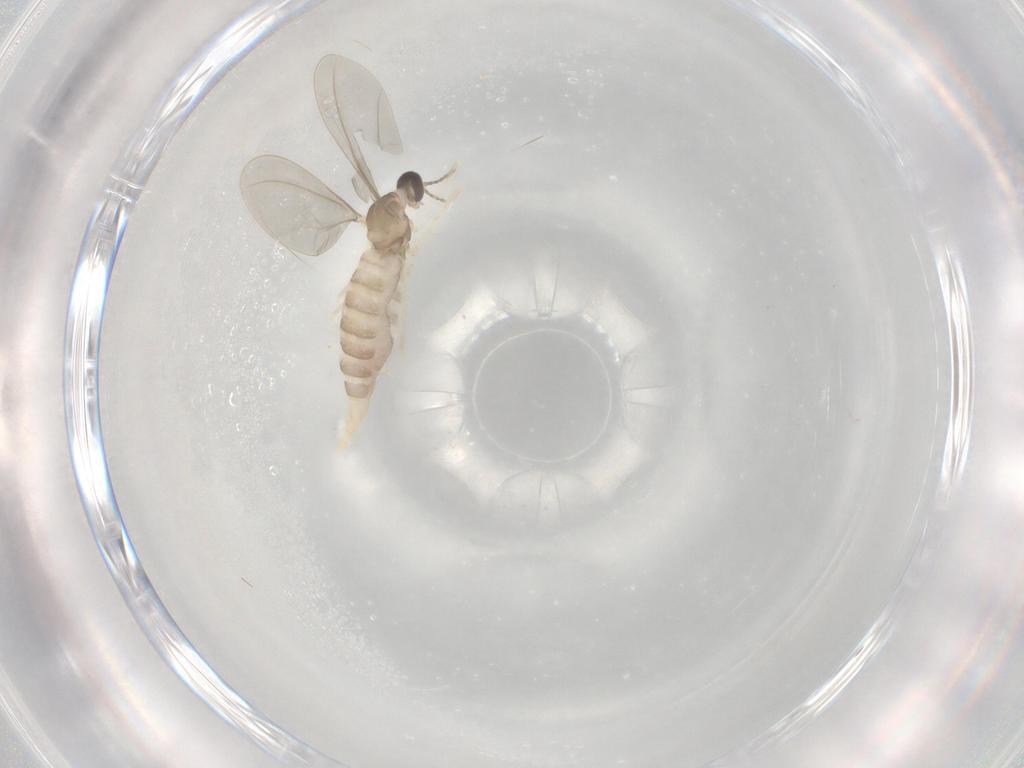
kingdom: Animalia
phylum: Arthropoda
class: Insecta
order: Diptera
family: Cecidomyiidae
